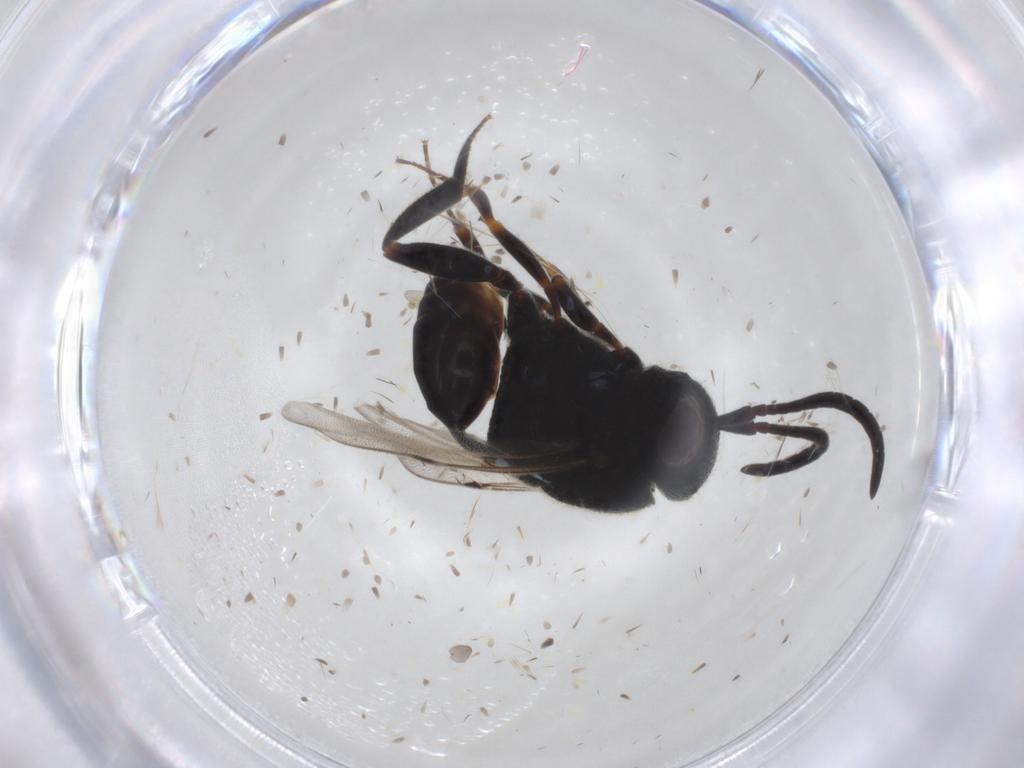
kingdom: Animalia
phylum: Arthropoda
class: Insecta
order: Hymenoptera
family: Evaniidae
